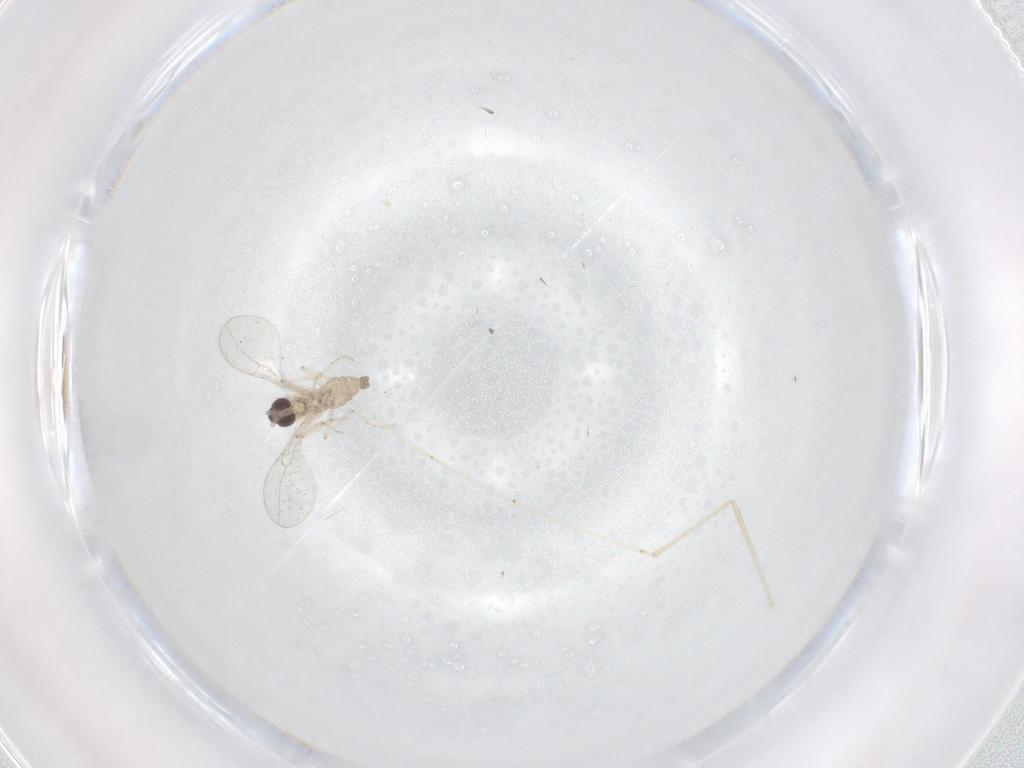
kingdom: Animalia
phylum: Arthropoda
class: Insecta
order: Diptera
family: Cecidomyiidae
